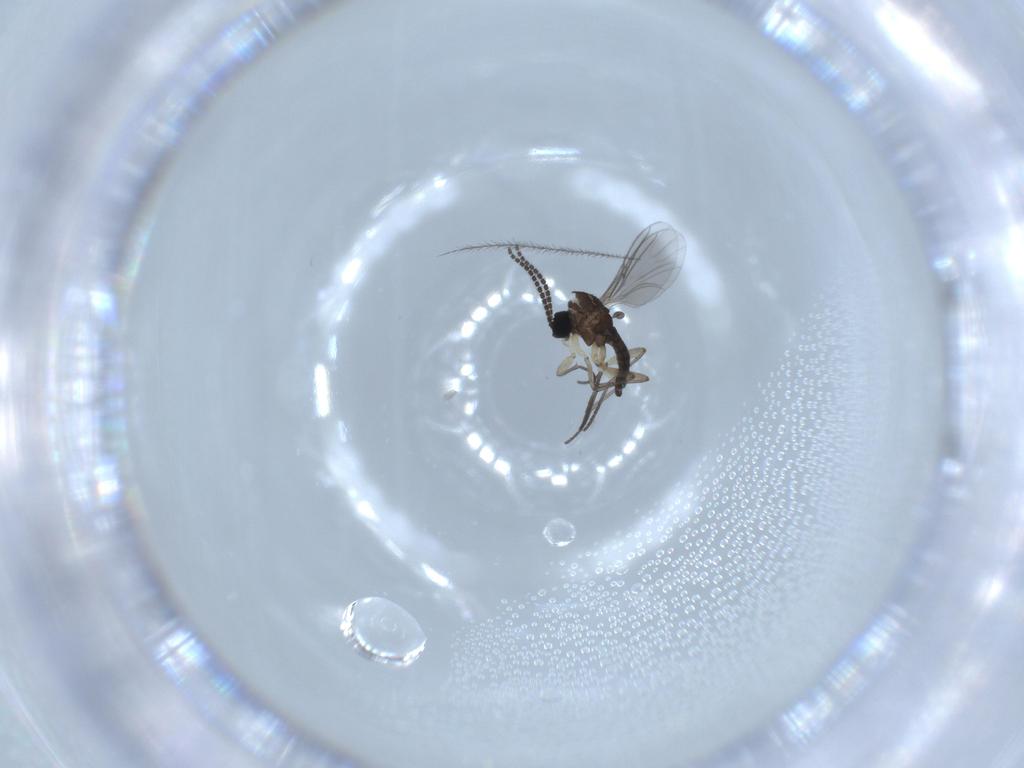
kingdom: Animalia
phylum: Arthropoda
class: Insecta
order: Diptera
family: Sciaridae
